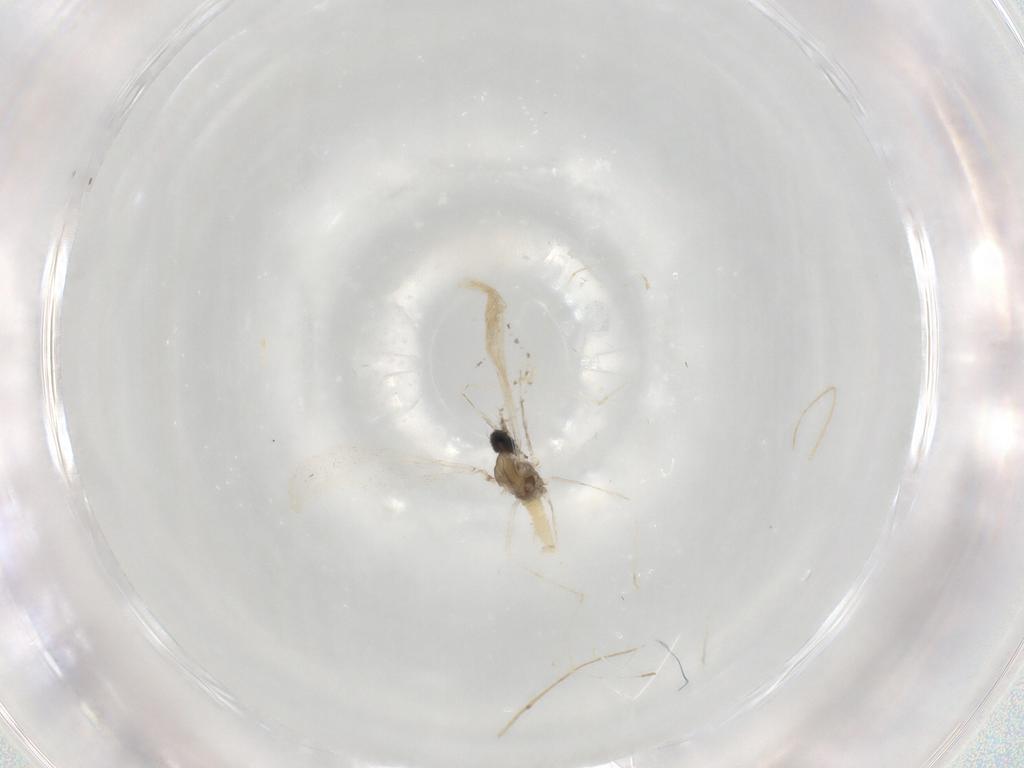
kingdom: Animalia
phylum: Arthropoda
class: Insecta
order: Diptera
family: Cecidomyiidae
